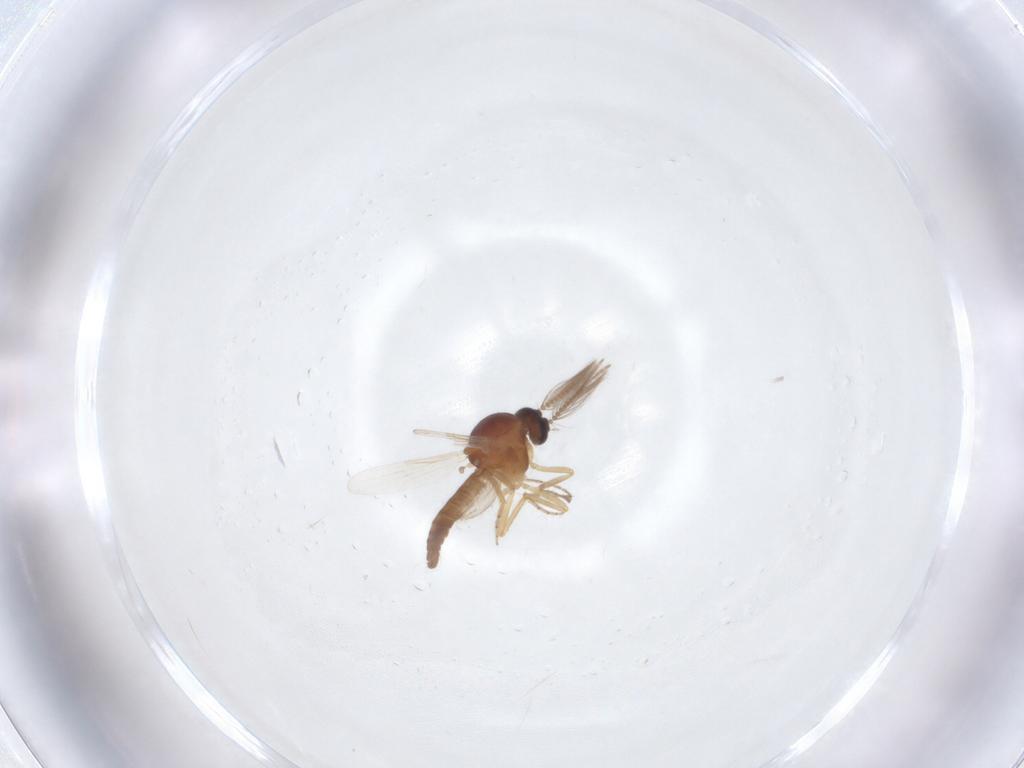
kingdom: Animalia
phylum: Arthropoda
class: Insecta
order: Diptera
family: Ceratopogonidae
